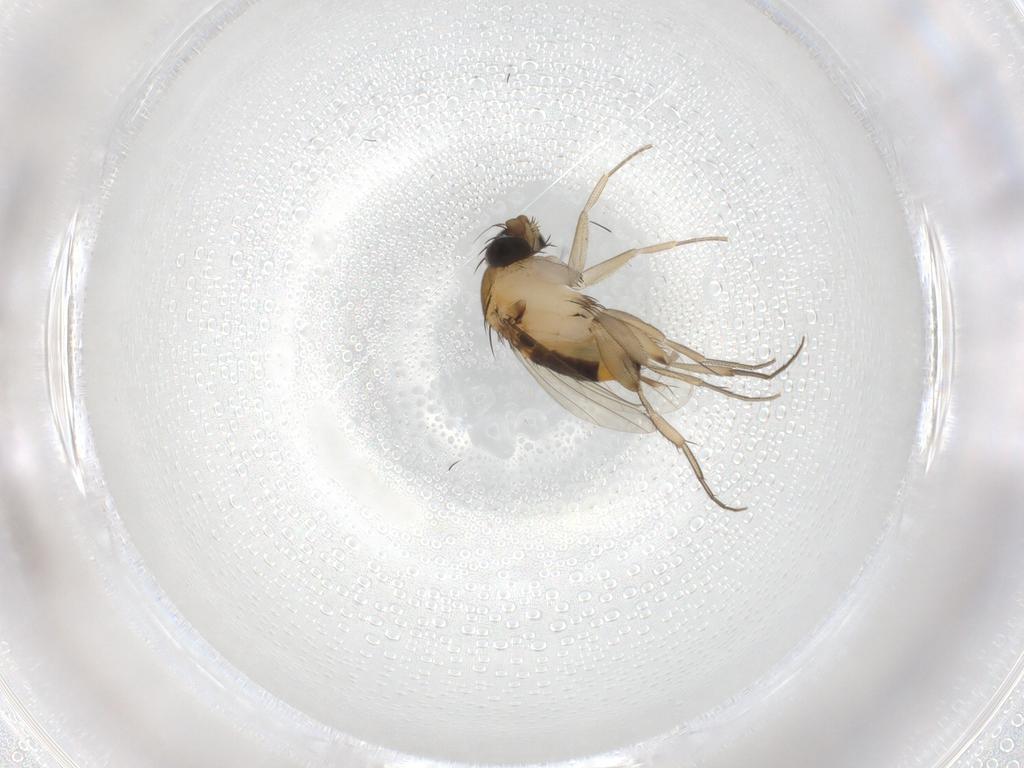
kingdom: Animalia
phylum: Arthropoda
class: Insecta
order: Diptera
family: Phoridae
